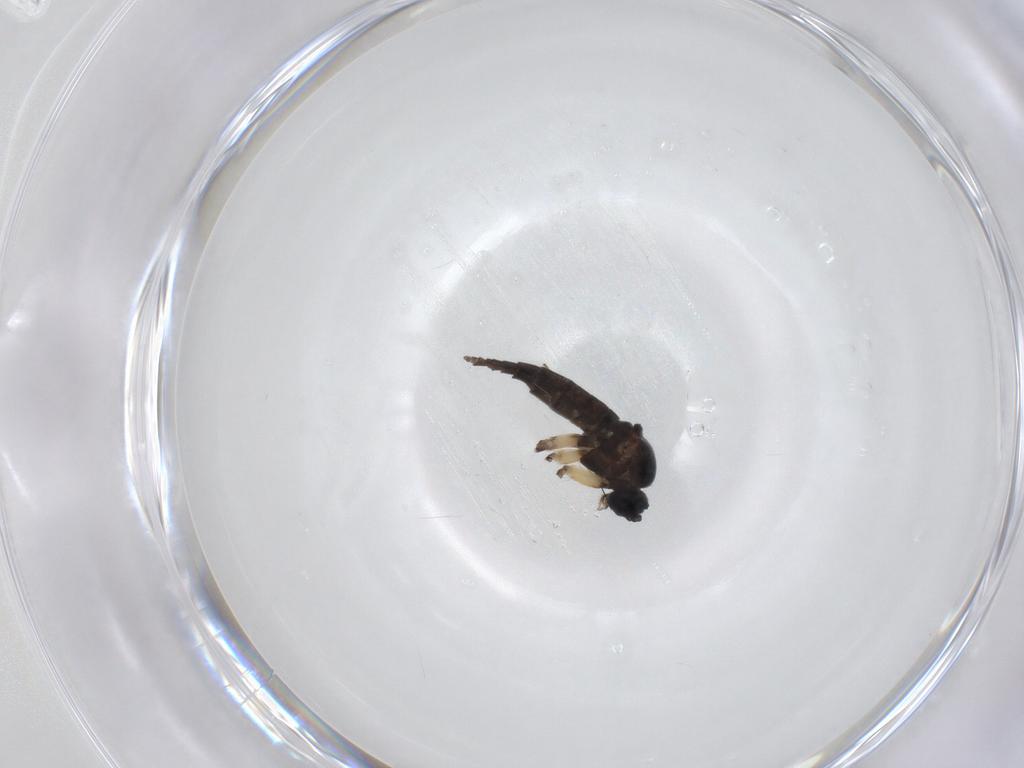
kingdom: Animalia
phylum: Arthropoda
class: Insecta
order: Diptera
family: Sciaridae
